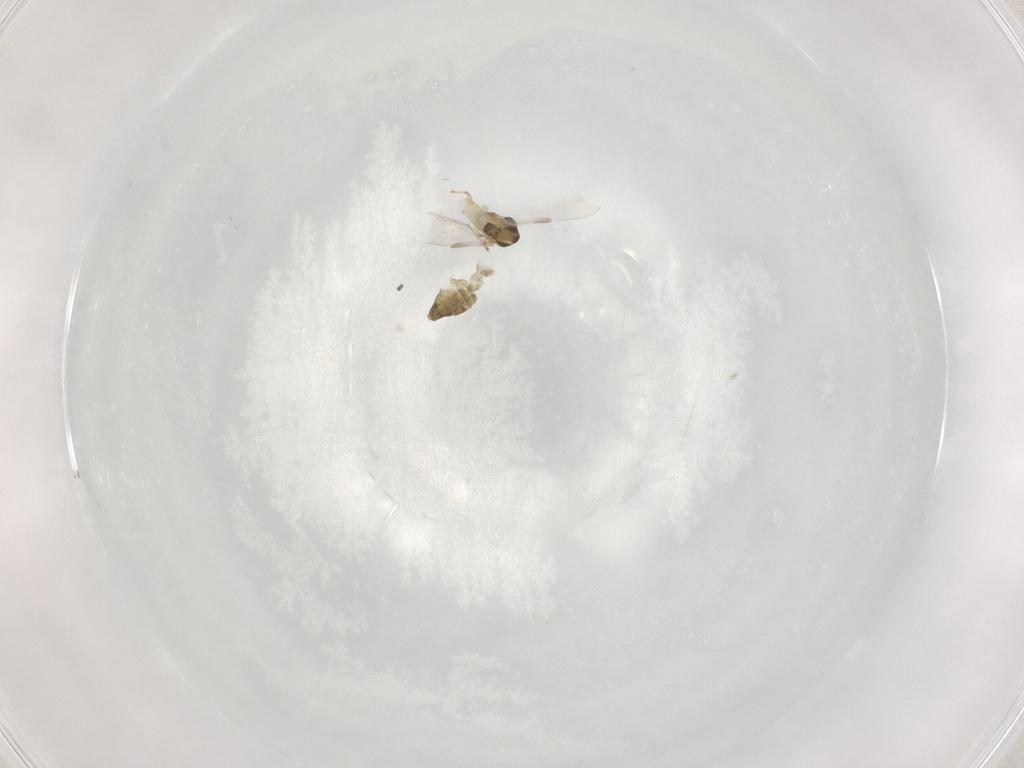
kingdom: Animalia
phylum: Arthropoda
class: Insecta
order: Diptera
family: Chironomidae
